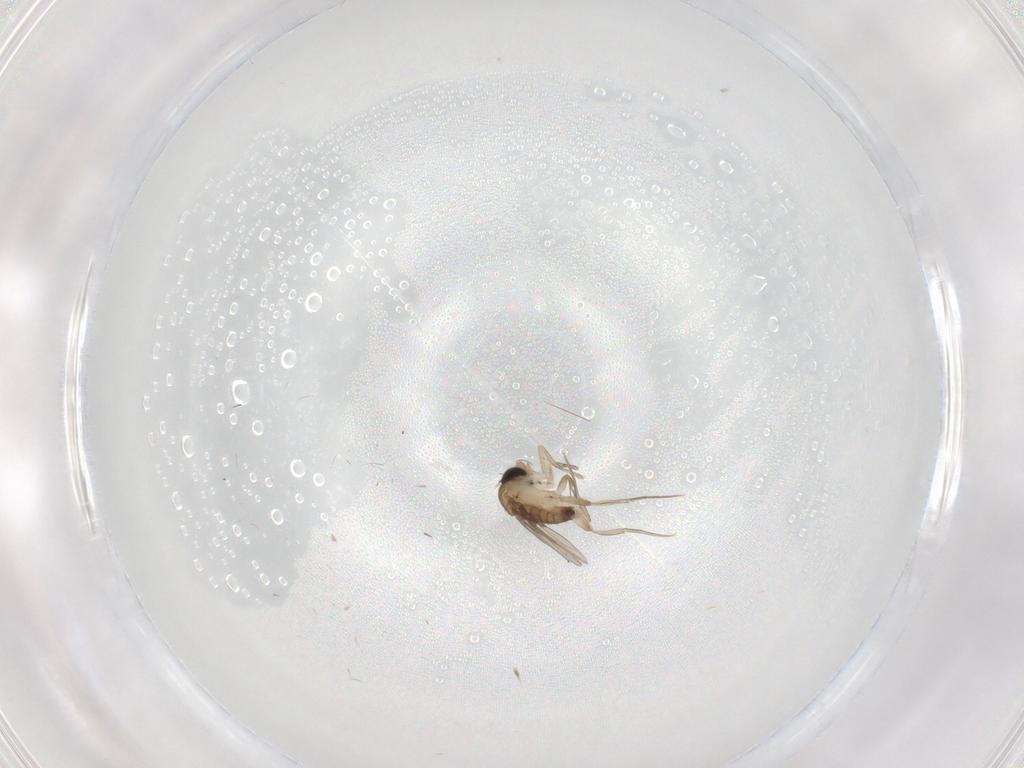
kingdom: Animalia
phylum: Arthropoda
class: Insecta
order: Diptera
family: Phoridae
